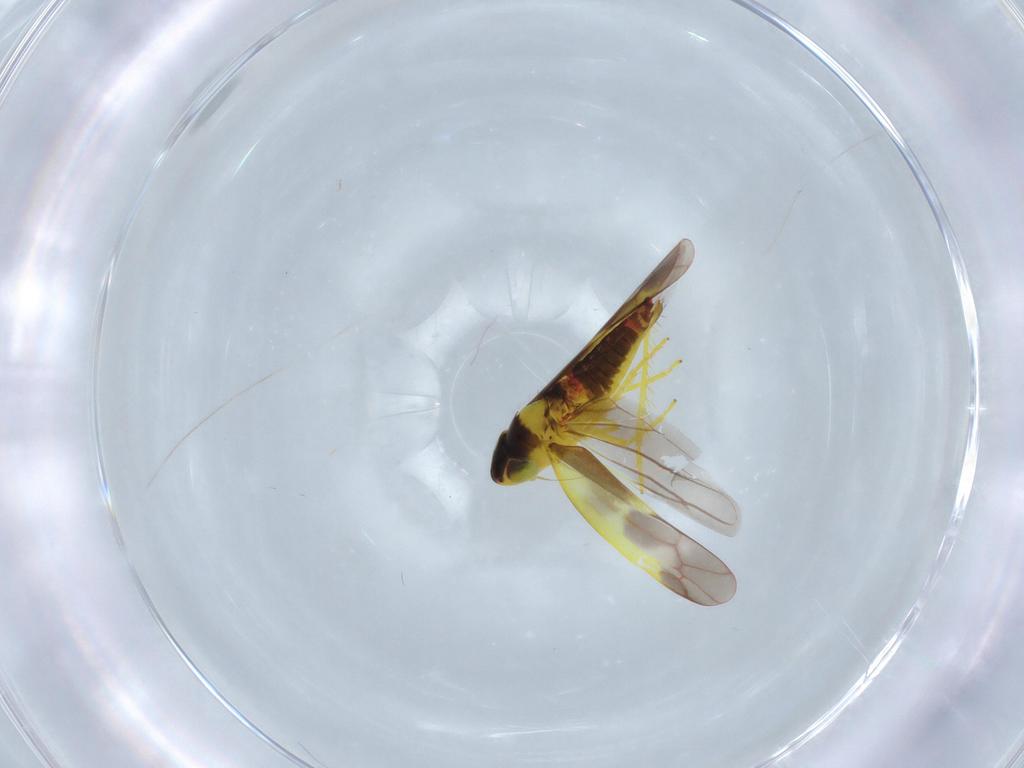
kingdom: Animalia
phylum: Arthropoda
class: Insecta
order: Hemiptera
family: Cicadellidae
